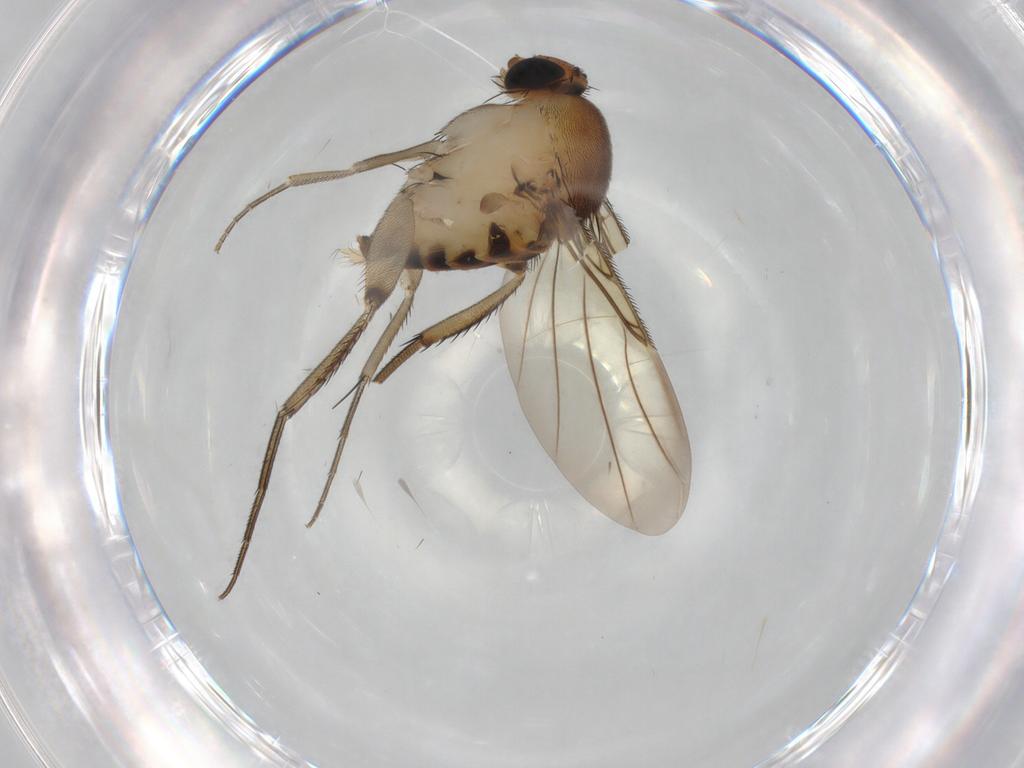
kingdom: Animalia
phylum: Arthropoda
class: Insecta
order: Diptera
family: Phoridae
